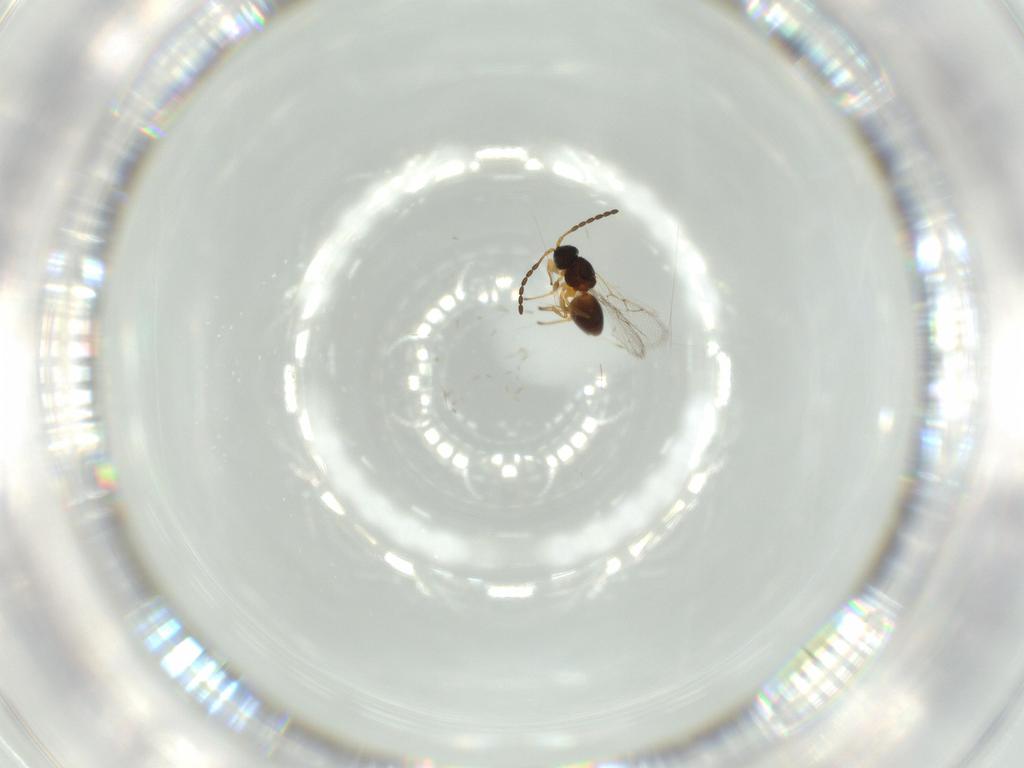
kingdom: Animalia
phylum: Arthropoda
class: Insecta
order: Hymenoptera
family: Figitidae
